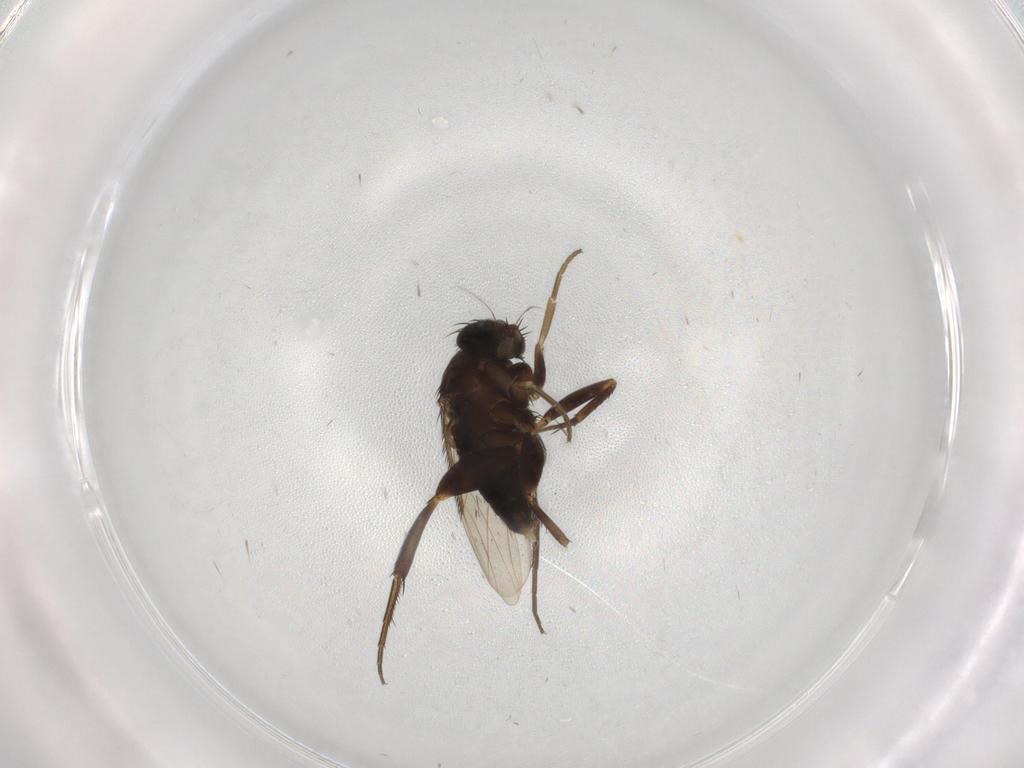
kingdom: Animalia
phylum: Arthropoda
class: Insecta
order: Diptera
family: Phoridae
